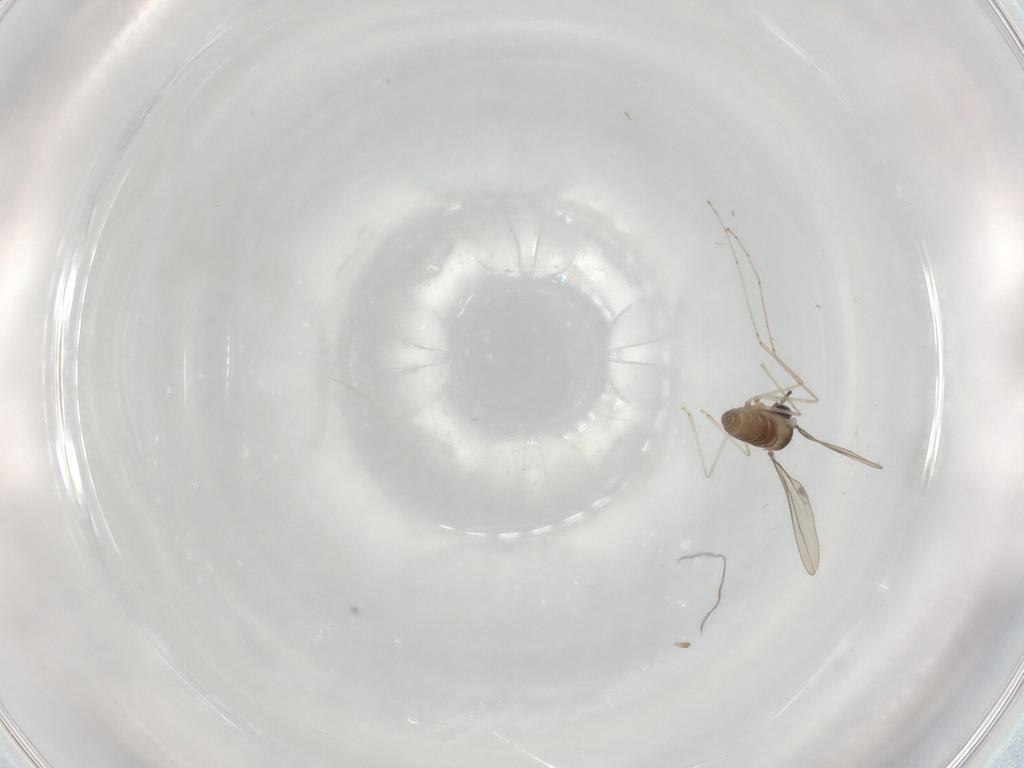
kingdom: Animalia
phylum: Arthropoda
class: Insecta
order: Diptera
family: Cecidomyiidae
